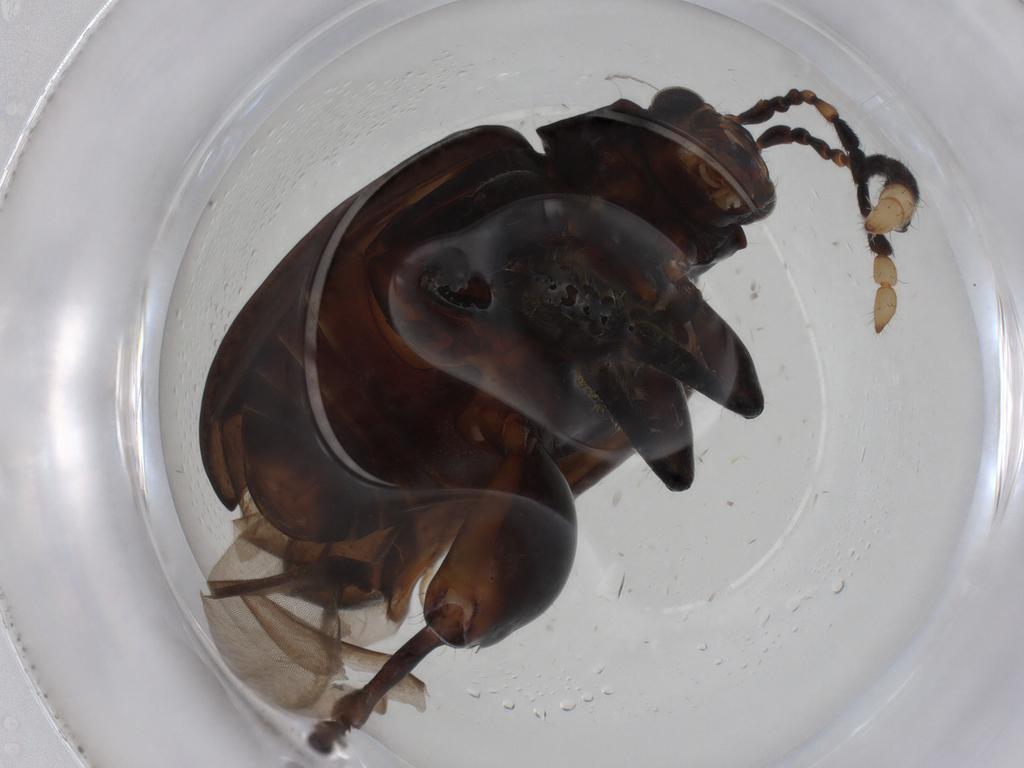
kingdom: Animalia
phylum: Arthropoda
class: Insecta
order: Coleoptera
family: Chrysomelidae
